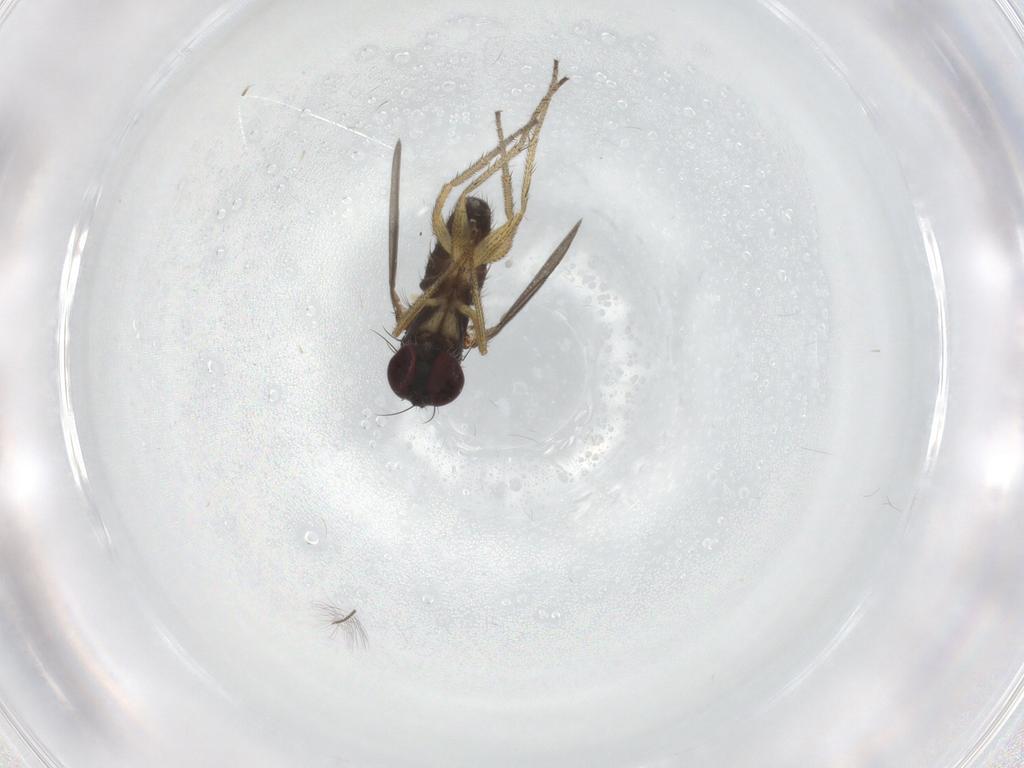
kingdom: Animalia
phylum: Arthropoda
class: Insecta
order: Diptera
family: Dolichopodidae
